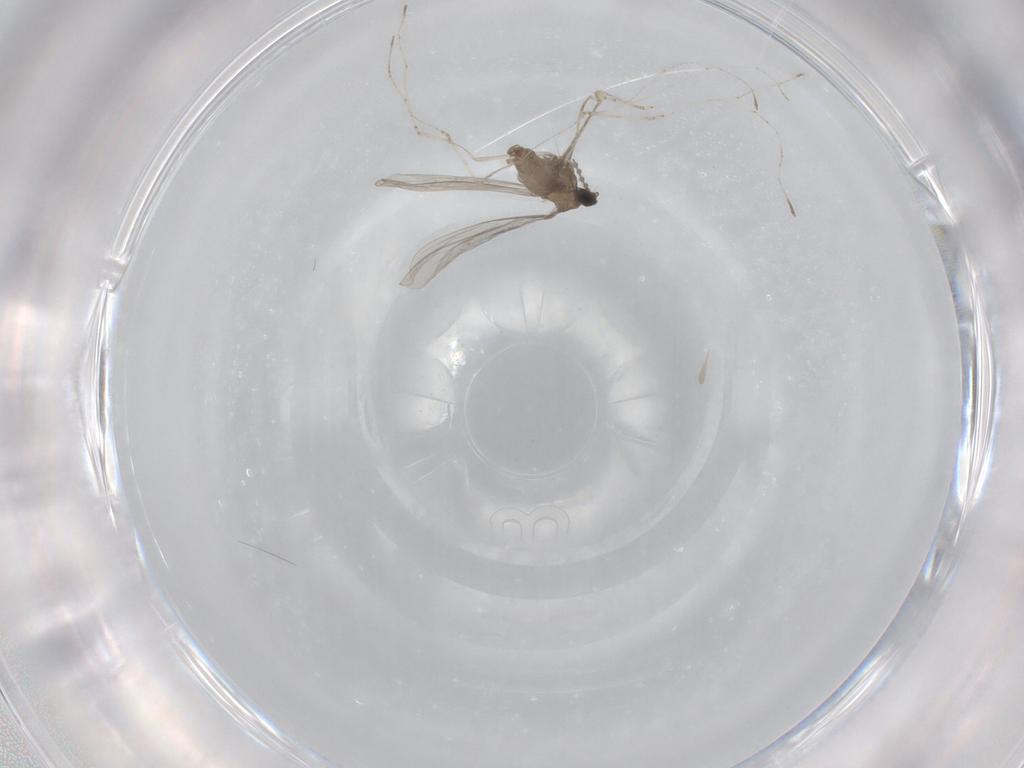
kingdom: Animalia
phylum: Arthropoda
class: Insecta
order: Diptera
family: Cecidomyiidae
